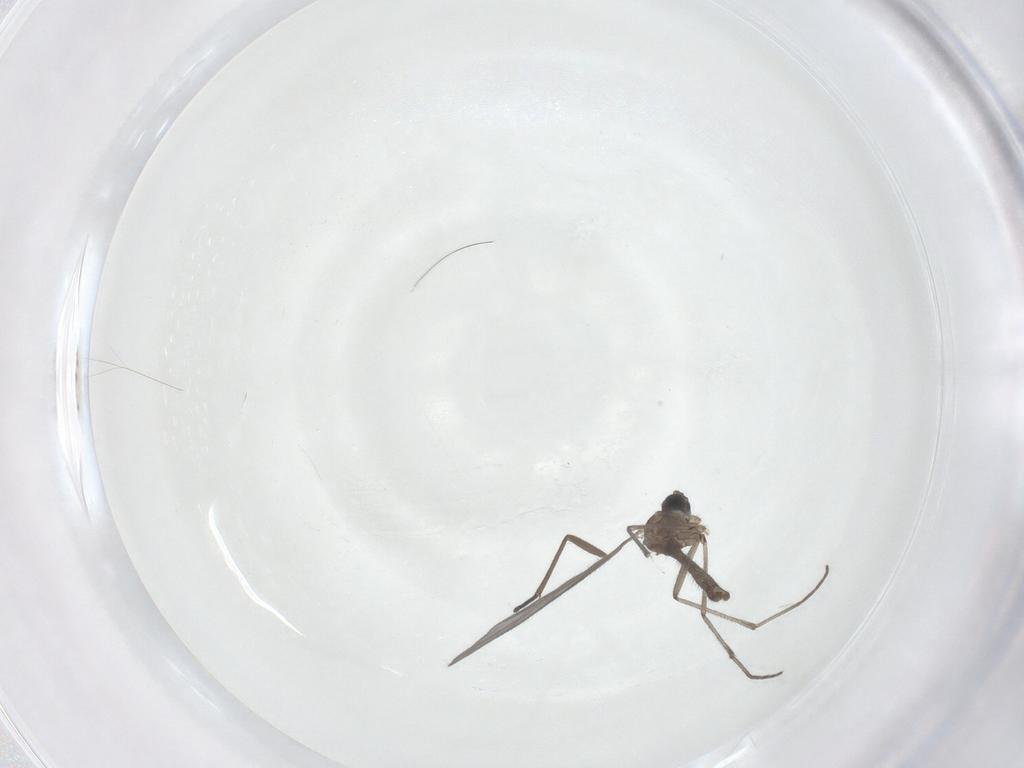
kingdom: Animalia
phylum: Arthropoda
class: Insecta
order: Diptera
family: Sciaridae
